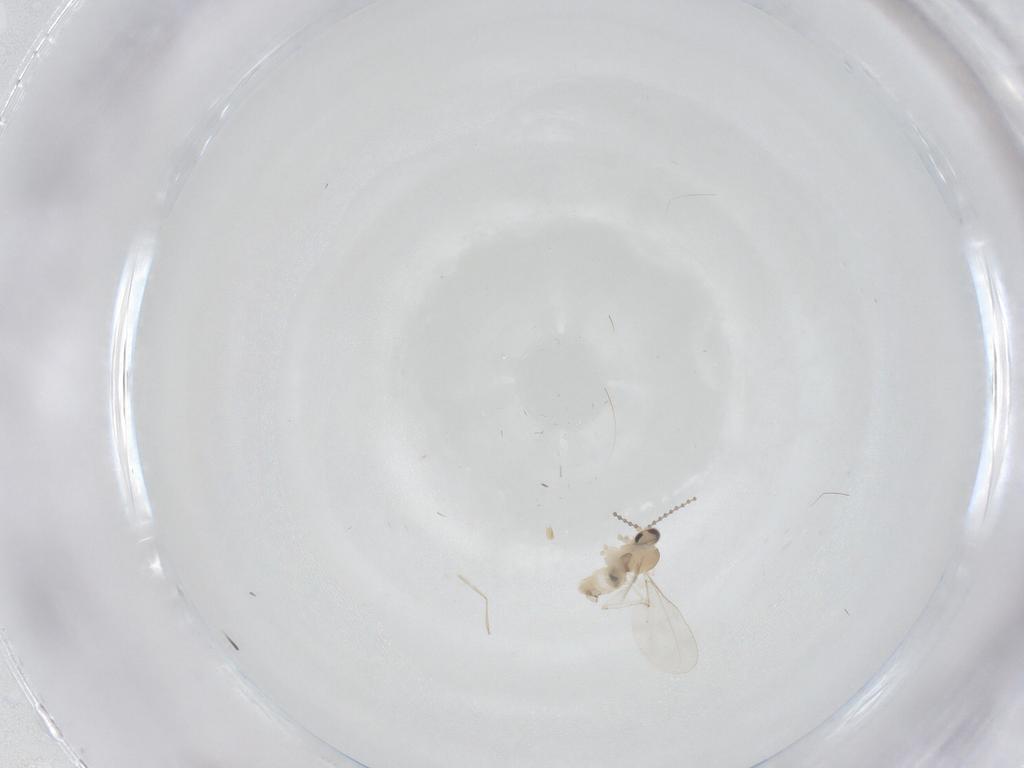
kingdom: Animalia
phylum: Arthropoda
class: Insecta
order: Diptera
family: Cecidomyiidae
